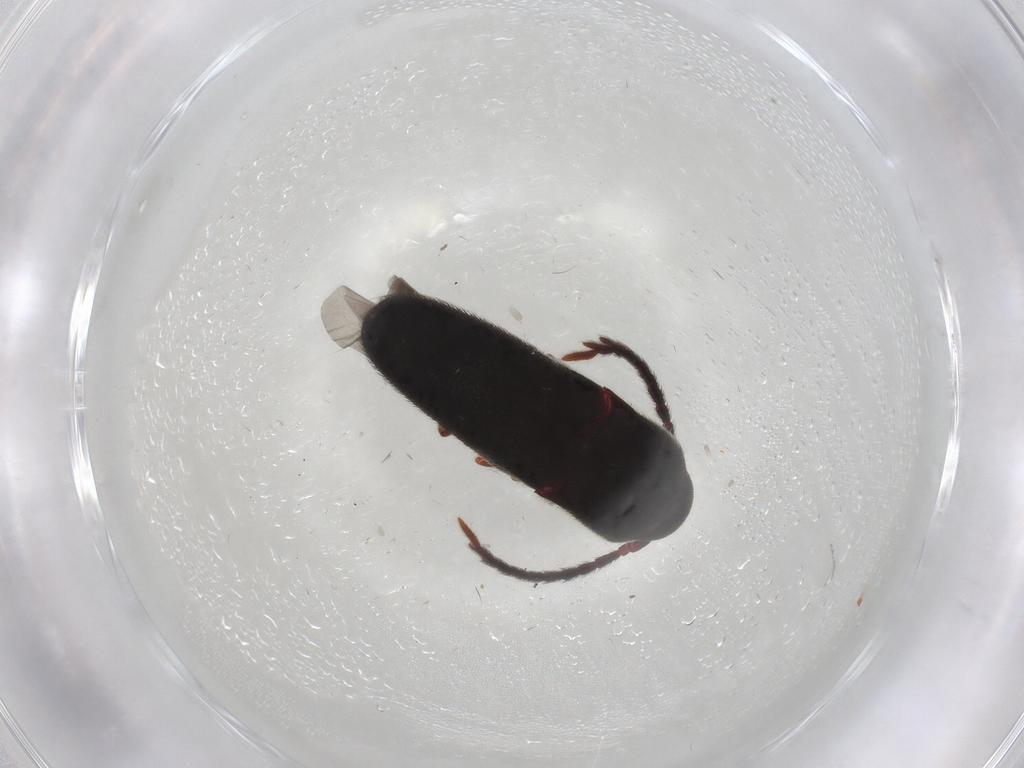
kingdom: Animalia
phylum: Arthropoda
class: Insecta
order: Coleoptera
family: Eucnemidae
